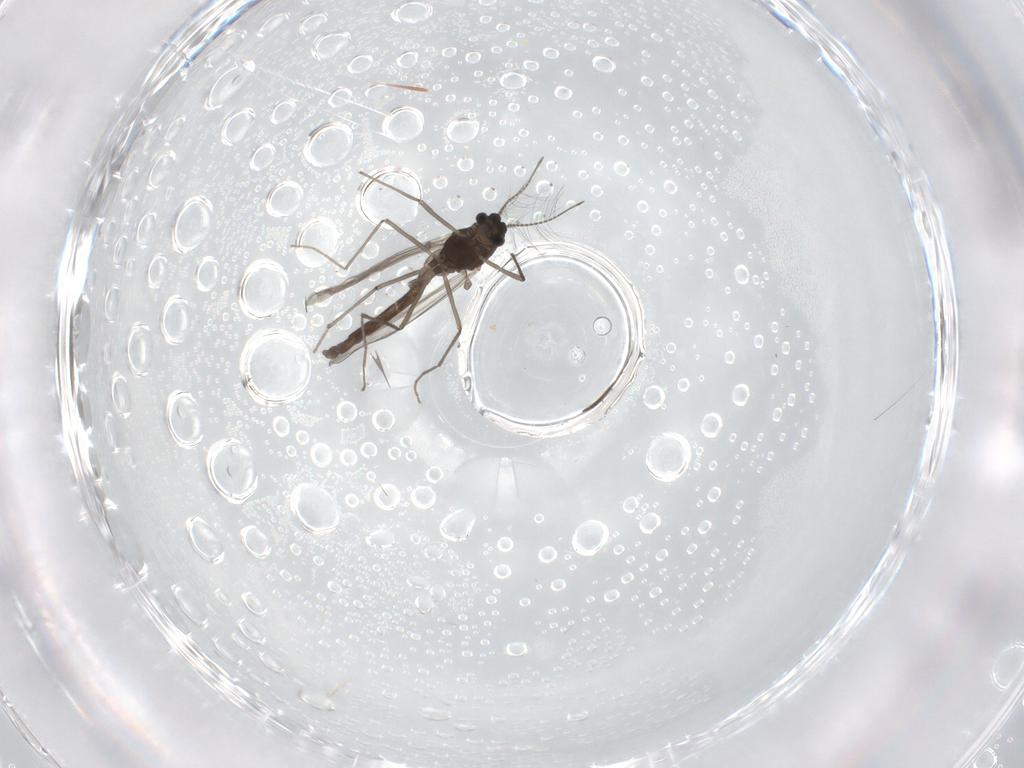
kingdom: Animalia
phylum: Arthropoda
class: Insecta
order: Diptera
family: Chironomidae
